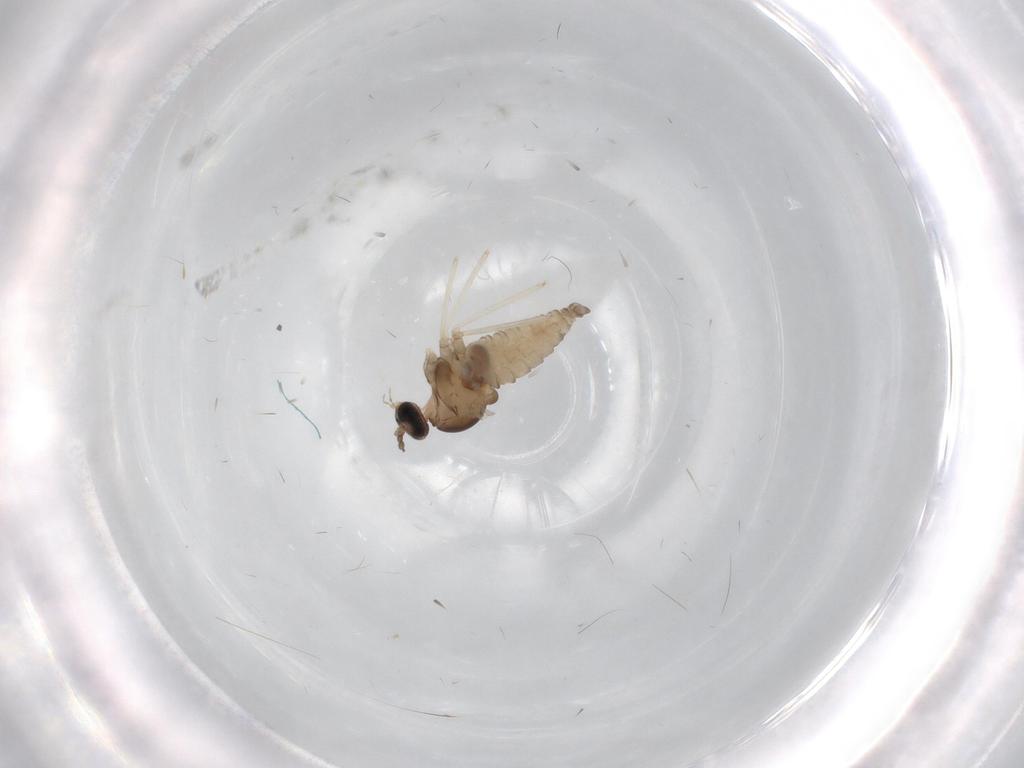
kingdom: Animalia
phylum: Arthropoda
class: Insecta
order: Diptera
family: Cecidomyiidae
